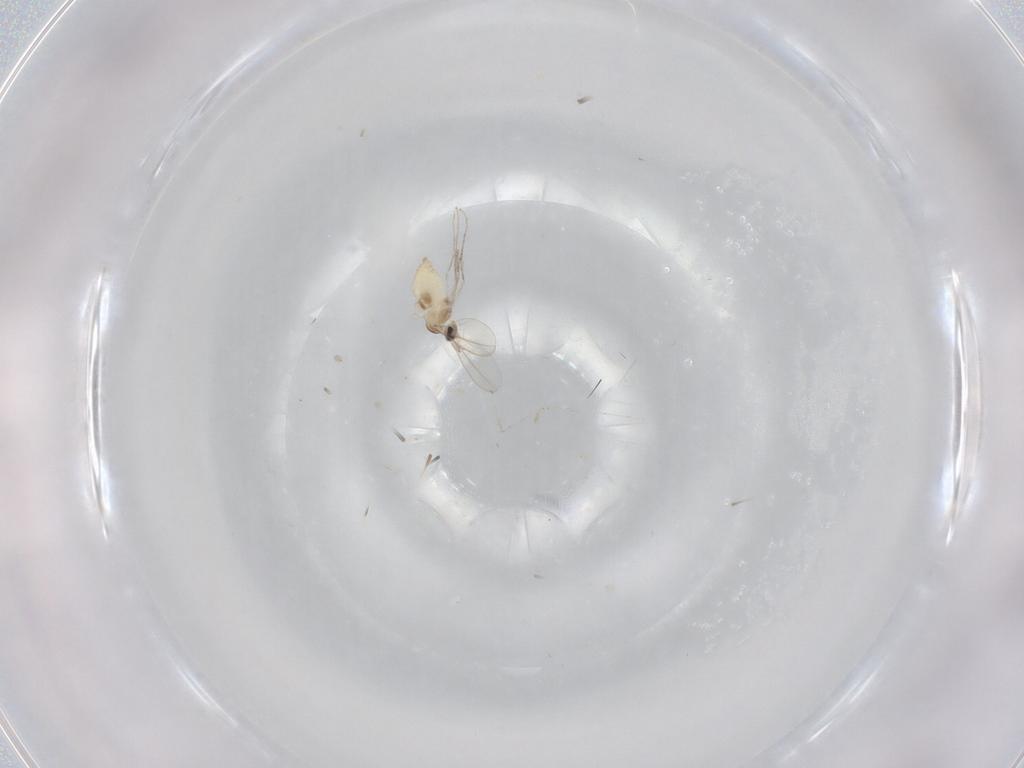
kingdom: Animalia
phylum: Arthropoda
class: Insecta
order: Diptera
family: Cecidomyiidae
